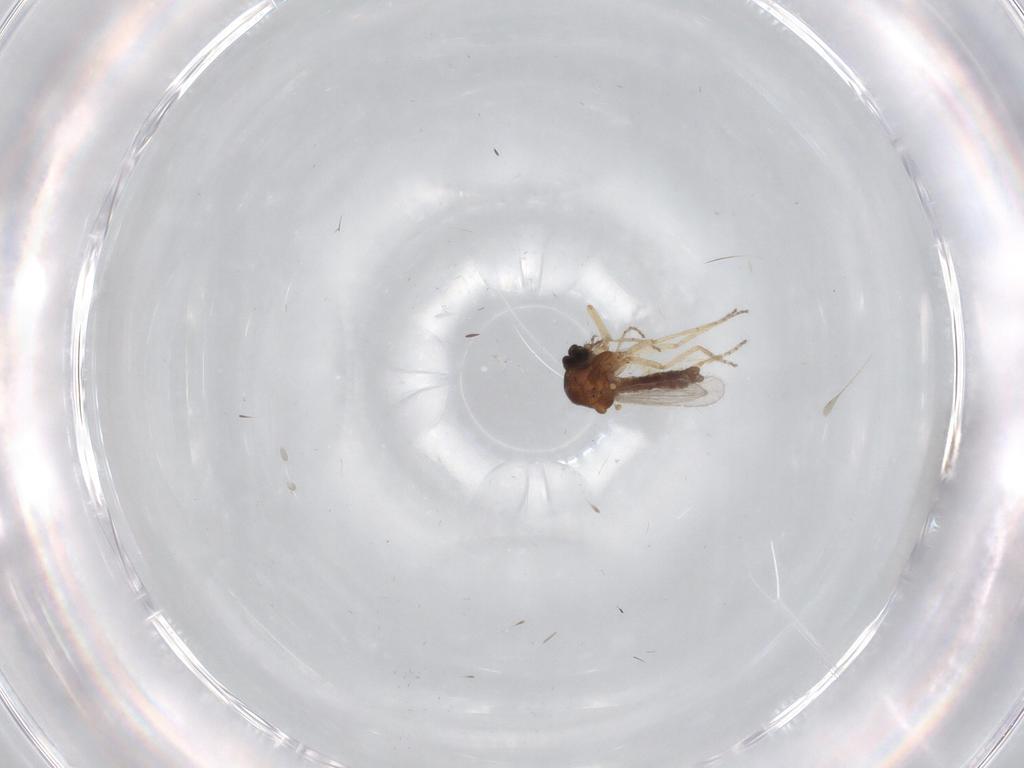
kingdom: Animalia
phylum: Arthropoda
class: Insecta
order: Diptera
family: Ceratopogonidae
